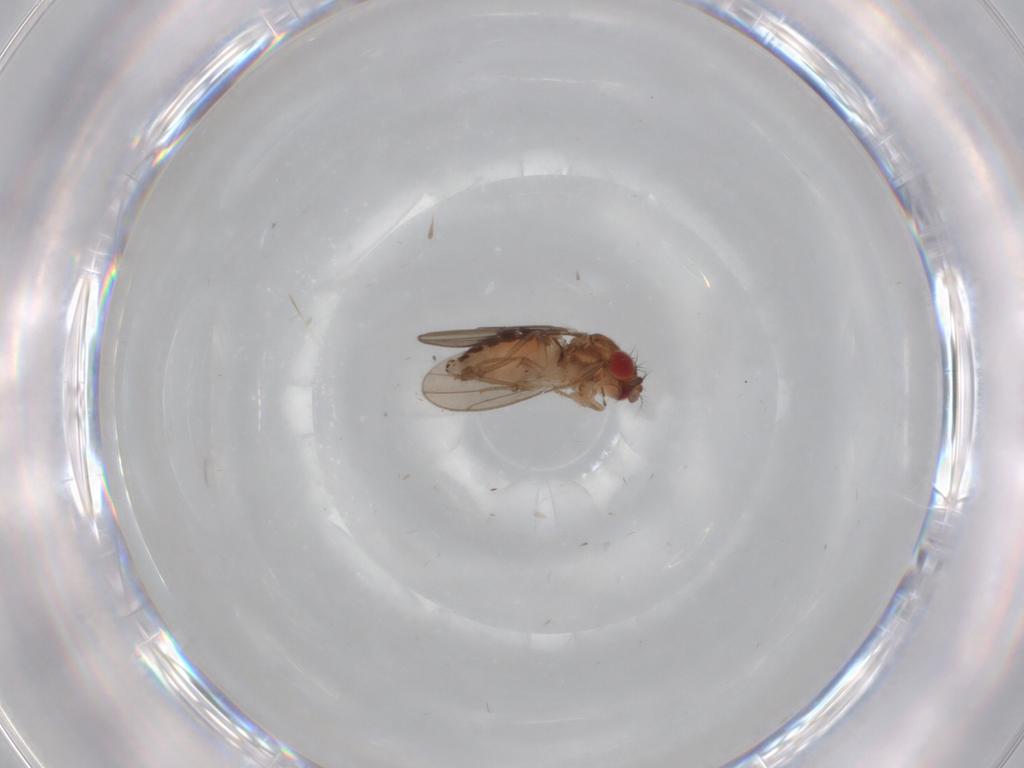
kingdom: Animalia
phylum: Arthropoda
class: Insecta
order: Diptera
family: Drosophilidae
